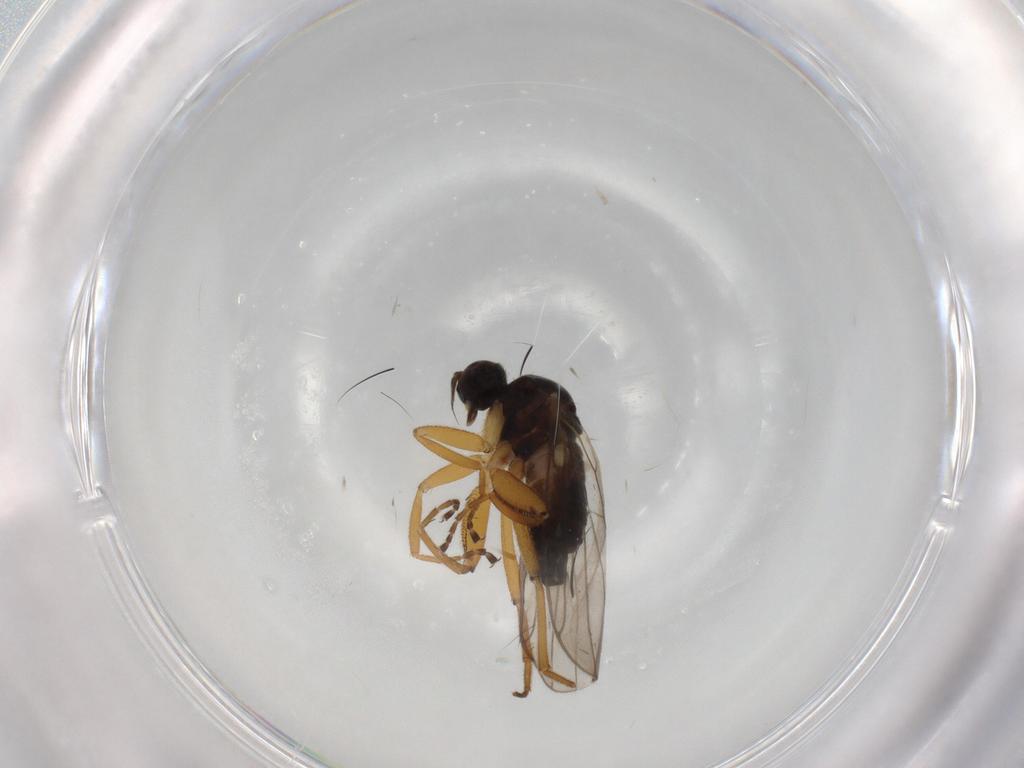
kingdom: Animalia
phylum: Arthropoda
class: Insecta
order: Diptera
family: Hybotidae
